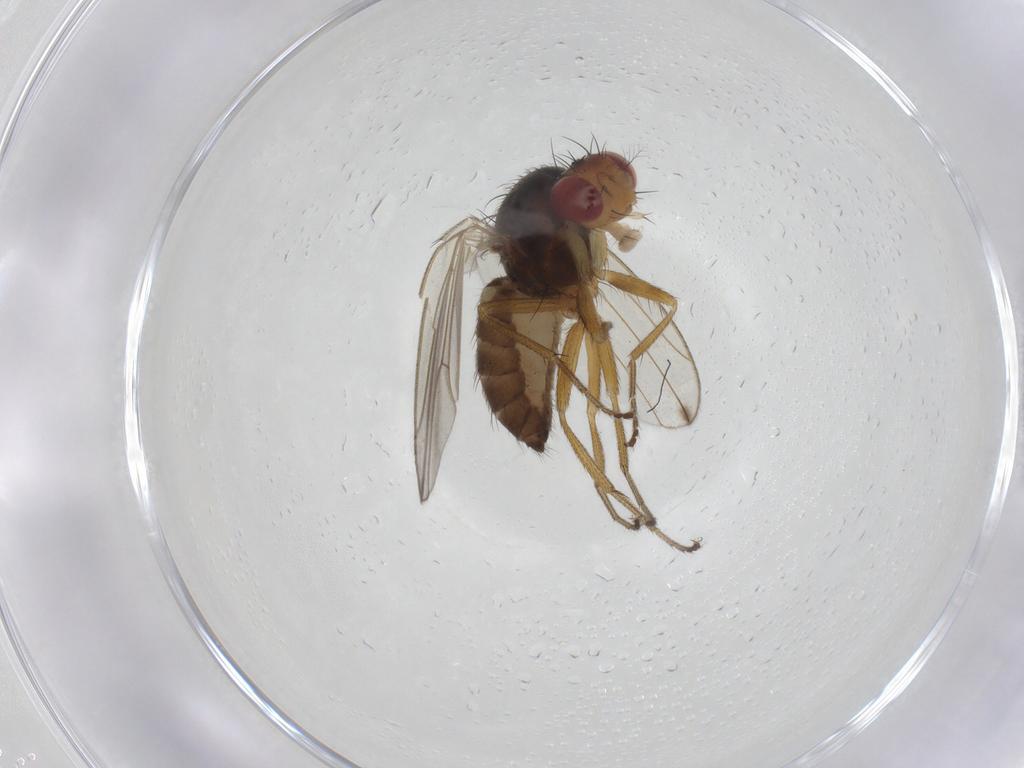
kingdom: Animalia
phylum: Arthropoda
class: Insecta
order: Diptera
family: Drosophilidae
